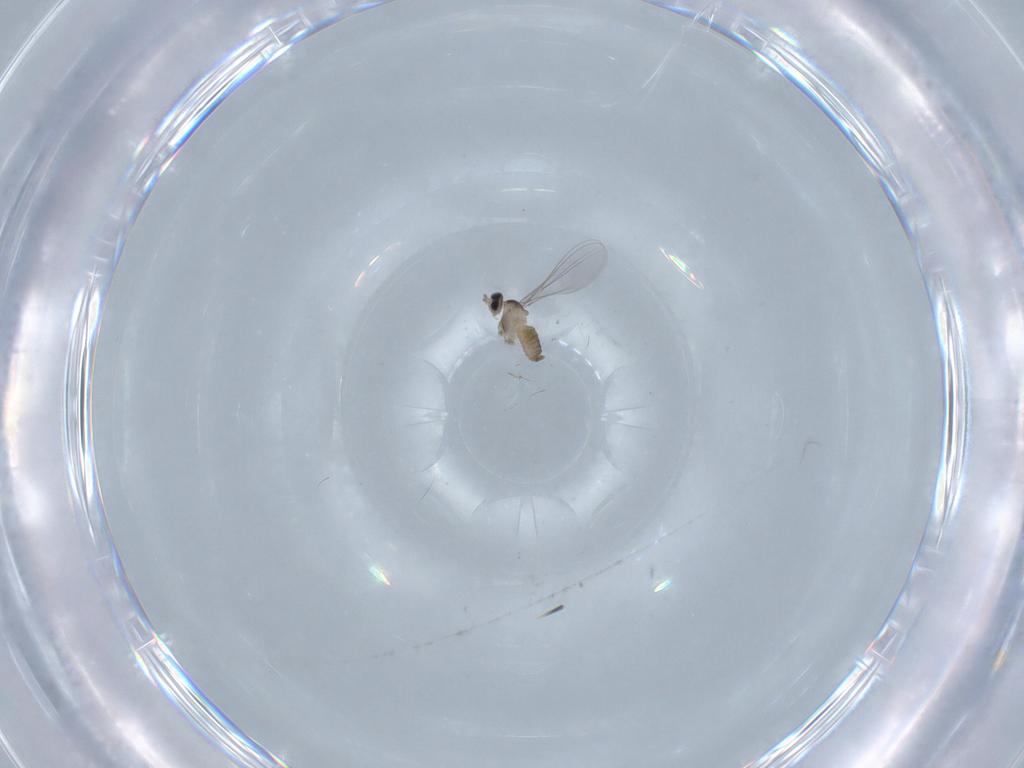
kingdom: Animalia
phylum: Arthropoda
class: Insecta
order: Diptera
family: Cecidomyiidae
